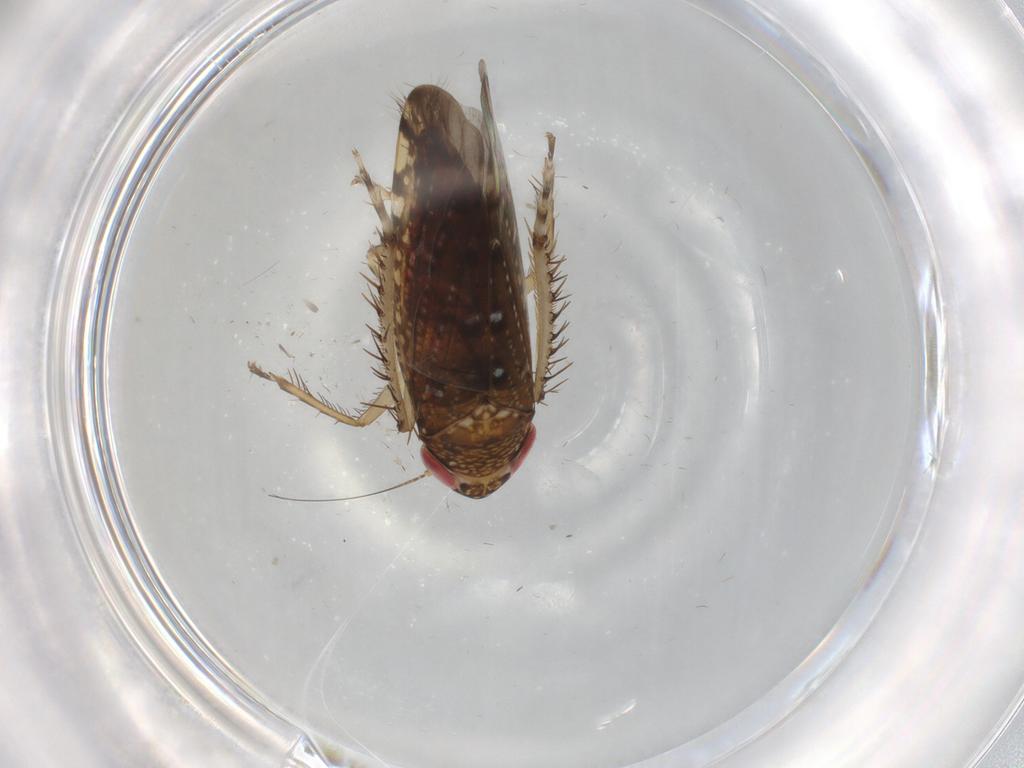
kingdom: Animalia
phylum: Arthropoda
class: Insecta
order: Hemiptera
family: Cicadellidae
